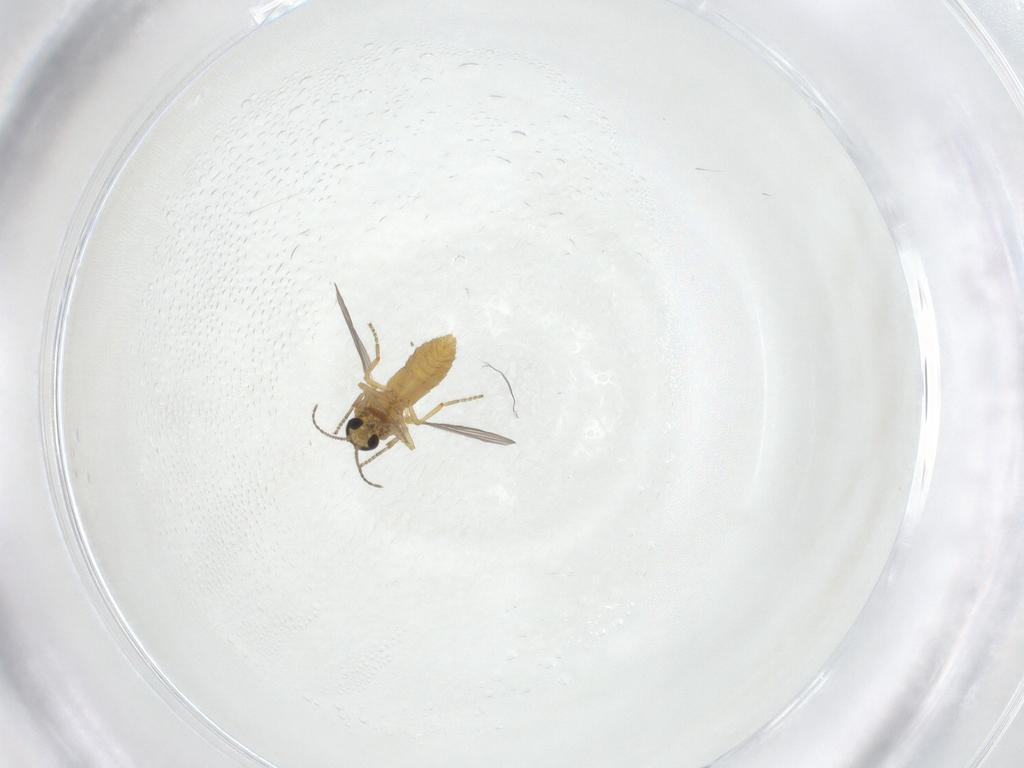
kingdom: Animalia
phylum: Arthropoda
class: Insecta
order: Diptera
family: Ceratopogonidae
